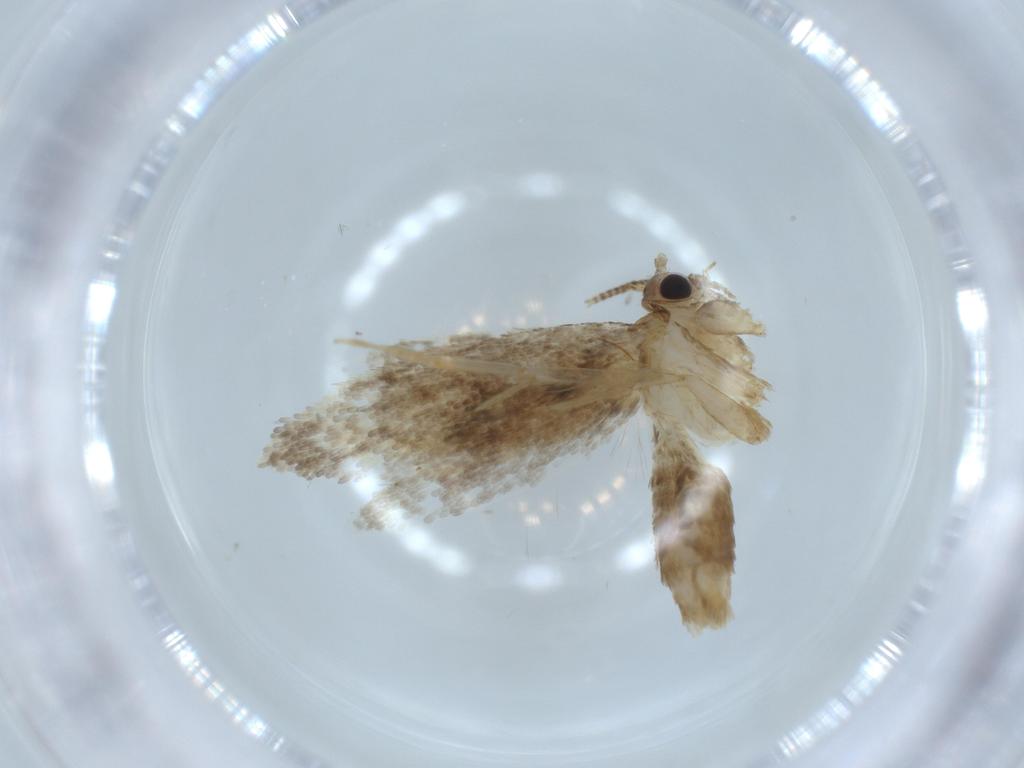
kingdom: Animalia
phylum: Arthropoda
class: Insecta
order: Lepidoptera
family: Tineidae
